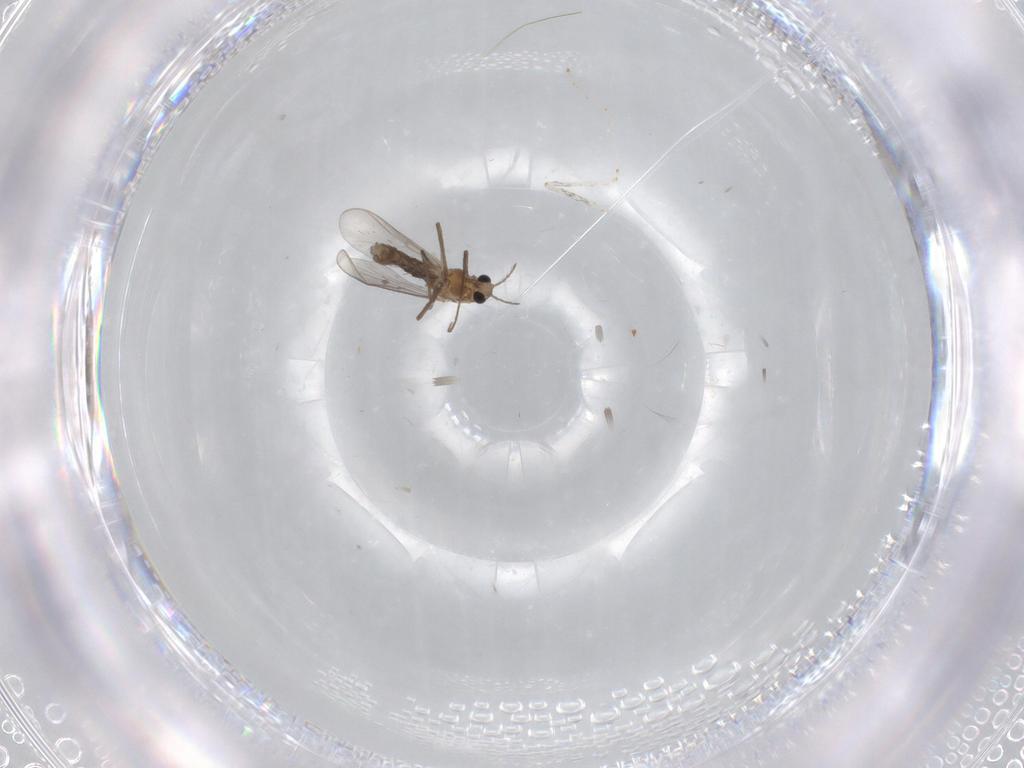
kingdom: Animalia
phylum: Arthropoda
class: Insecta
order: Diptera
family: Chironomidae
